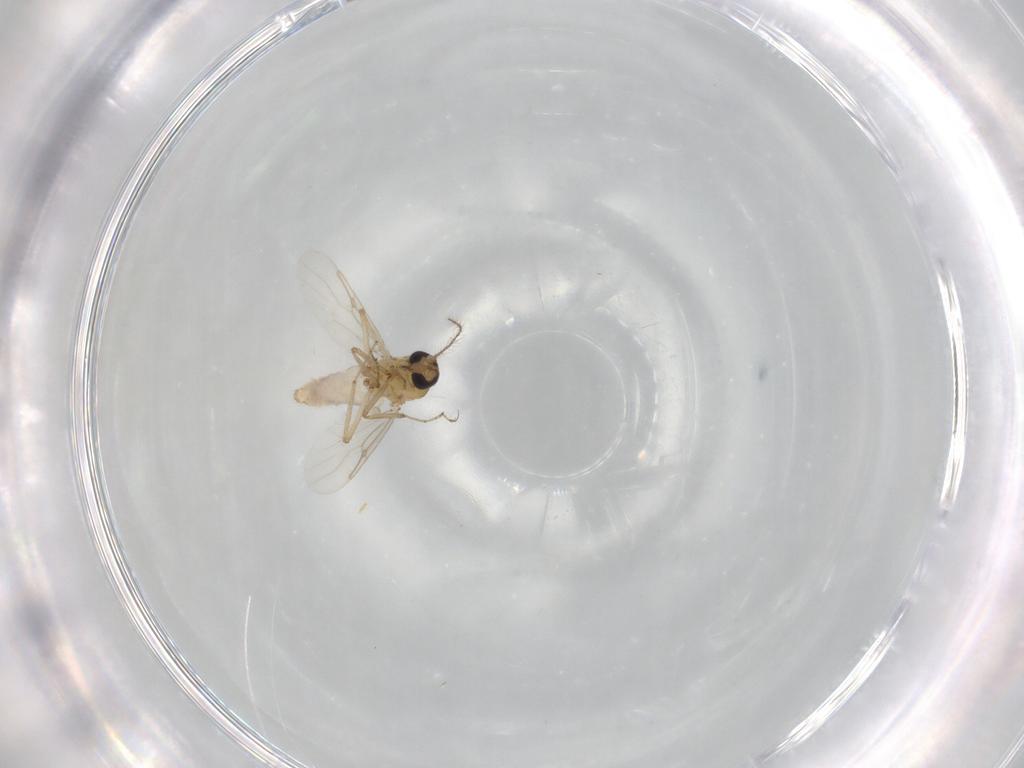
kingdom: Animalia
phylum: Arthropoda
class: Insecta
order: Diptera
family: Ceratopogonidae
